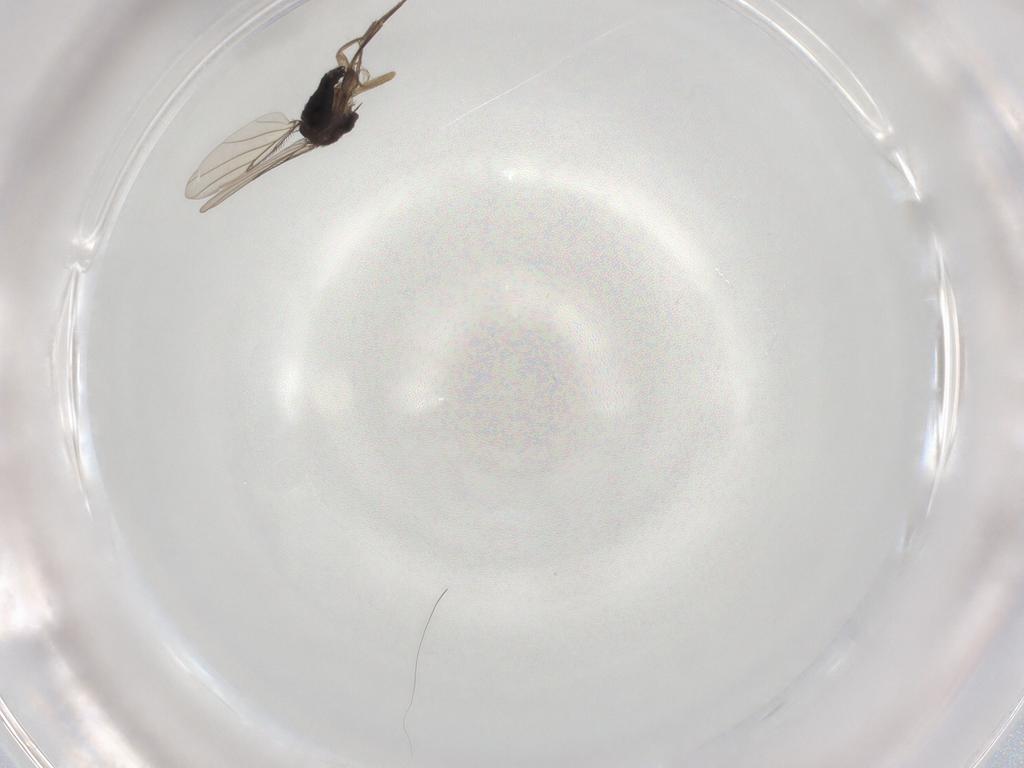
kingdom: Animalia
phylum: Arthropoda
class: Insecta
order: Diptera
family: Phoridae
